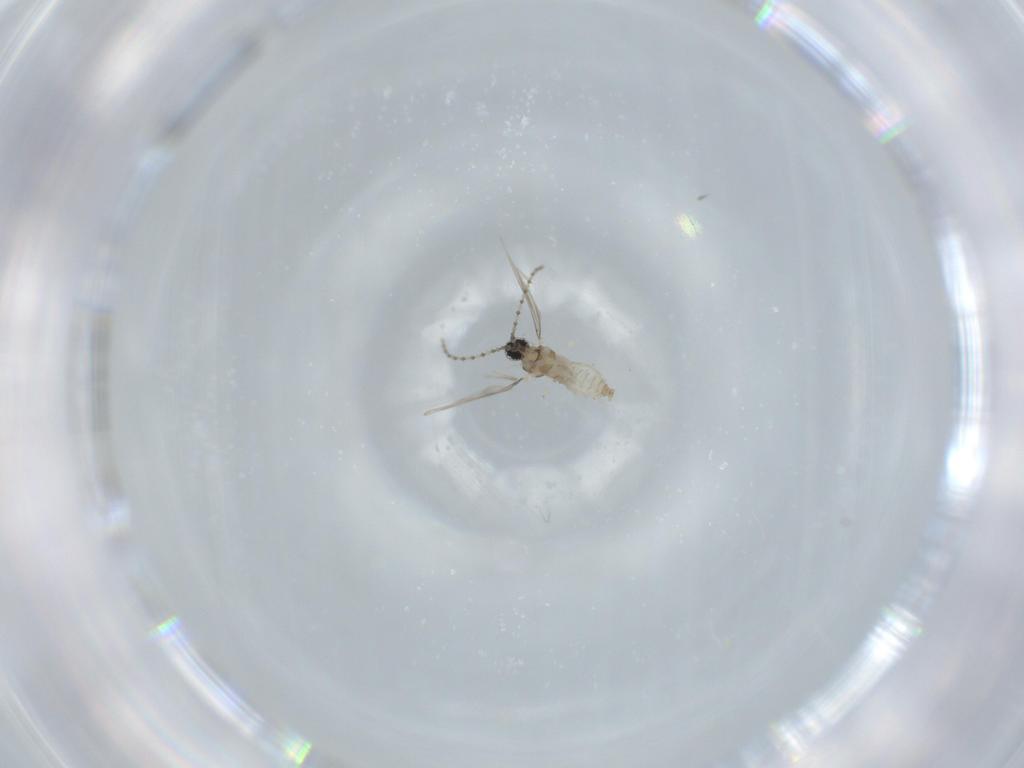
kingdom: Animalia
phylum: Arthropoda
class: Insecta
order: Diptera
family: Cecidomyiidae
